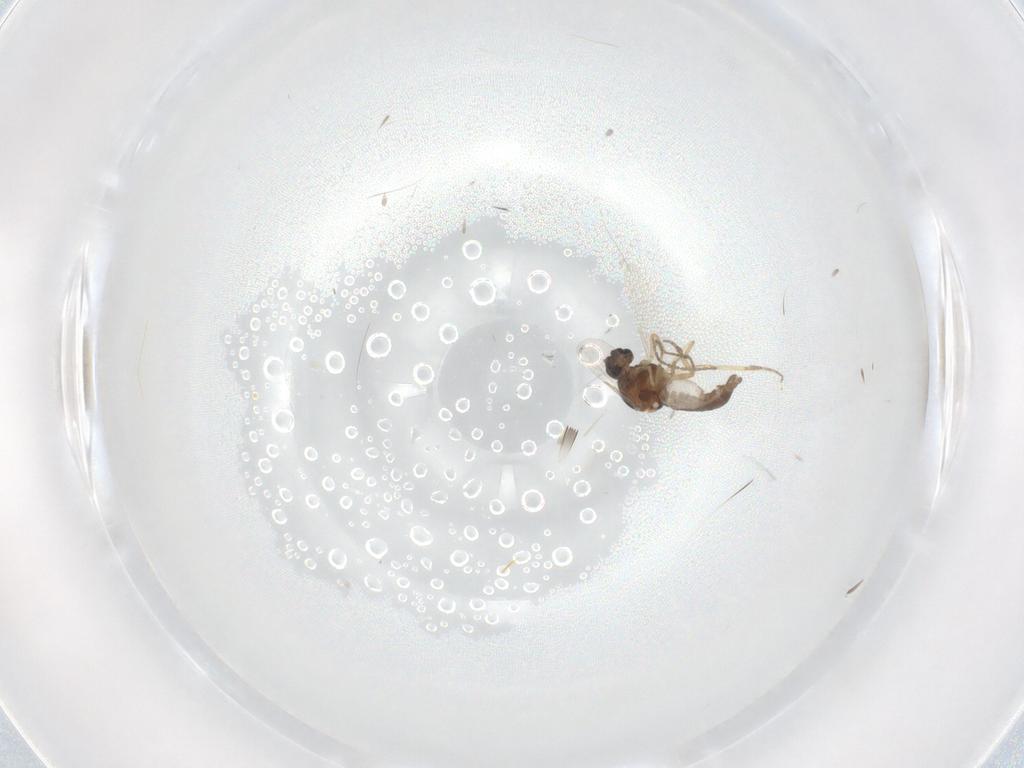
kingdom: Animalia
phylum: Arthropoda
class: Insecta
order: Diptera
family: Ceratopogonidae
